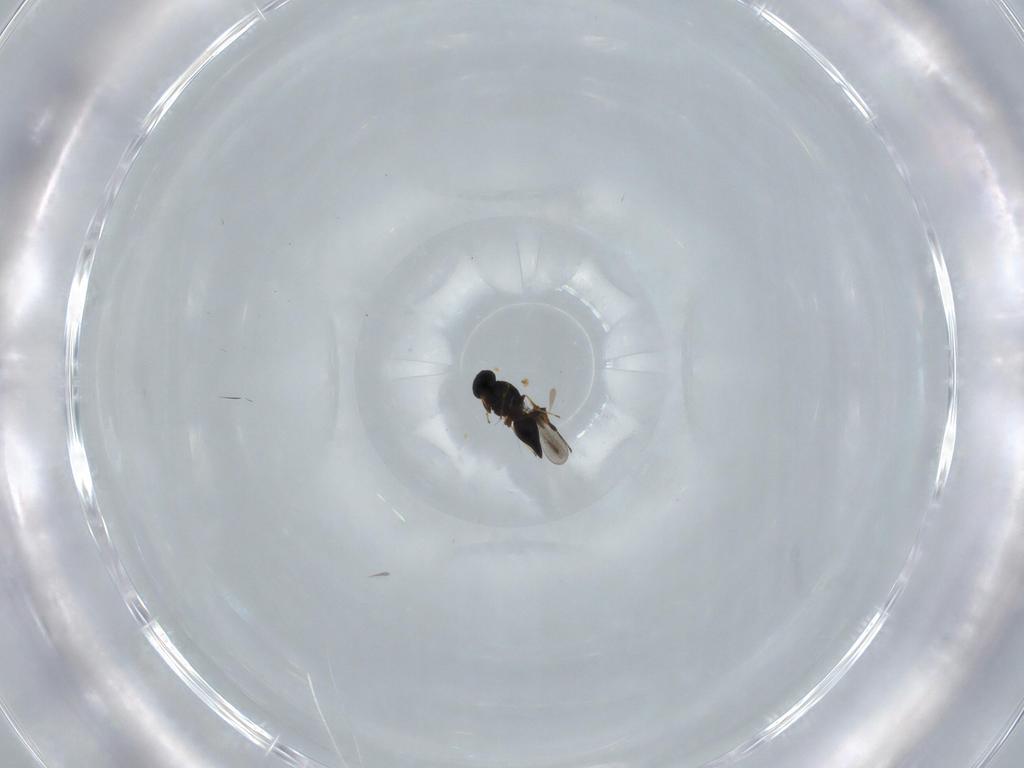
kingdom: Animalia
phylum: Arthropoda
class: Insecta
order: Hymenoptera
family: Platygastridae
